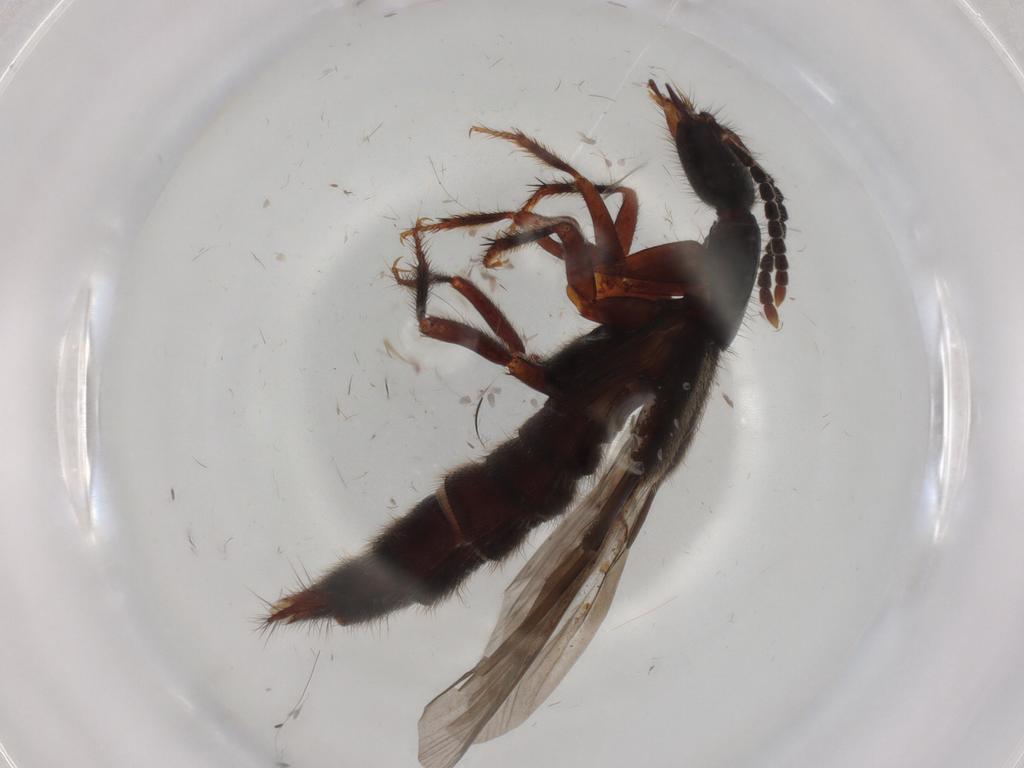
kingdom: Animalia
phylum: Arthropoda
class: Insecta
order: Coleoptera
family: Staphylinidae
